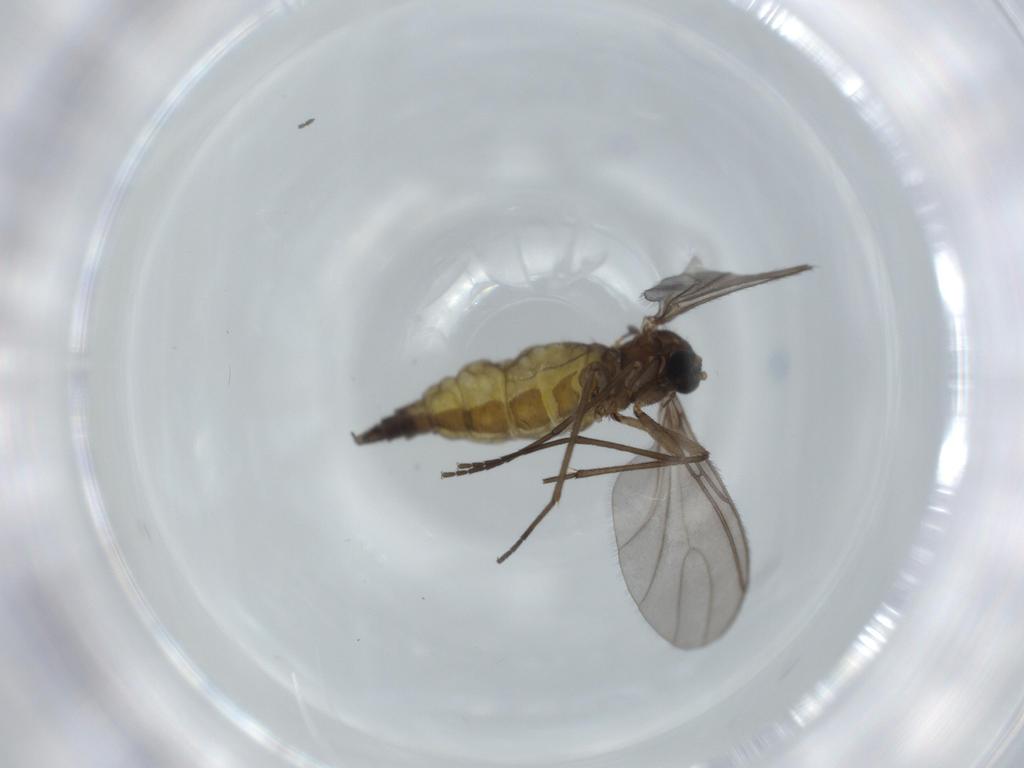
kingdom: Animalia
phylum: Arthropoda
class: Insecta
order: Diptera
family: Sciaridae
